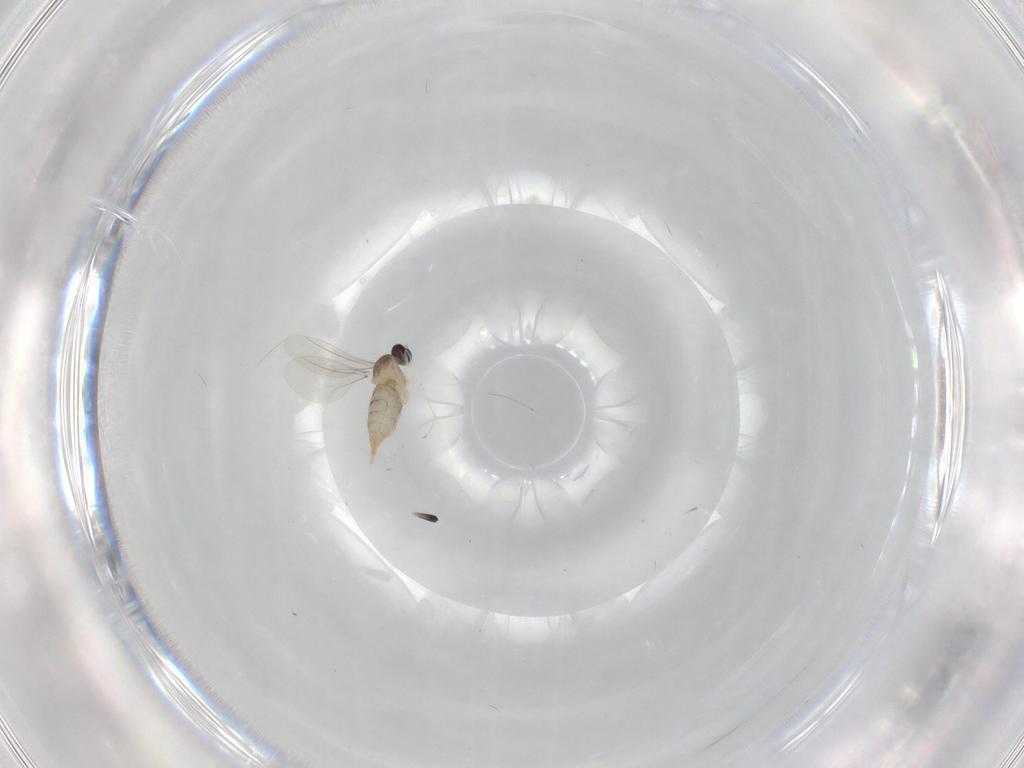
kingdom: Animalia
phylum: Arthropoda
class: Insecta
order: Diptera
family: Cecidomyiidae
